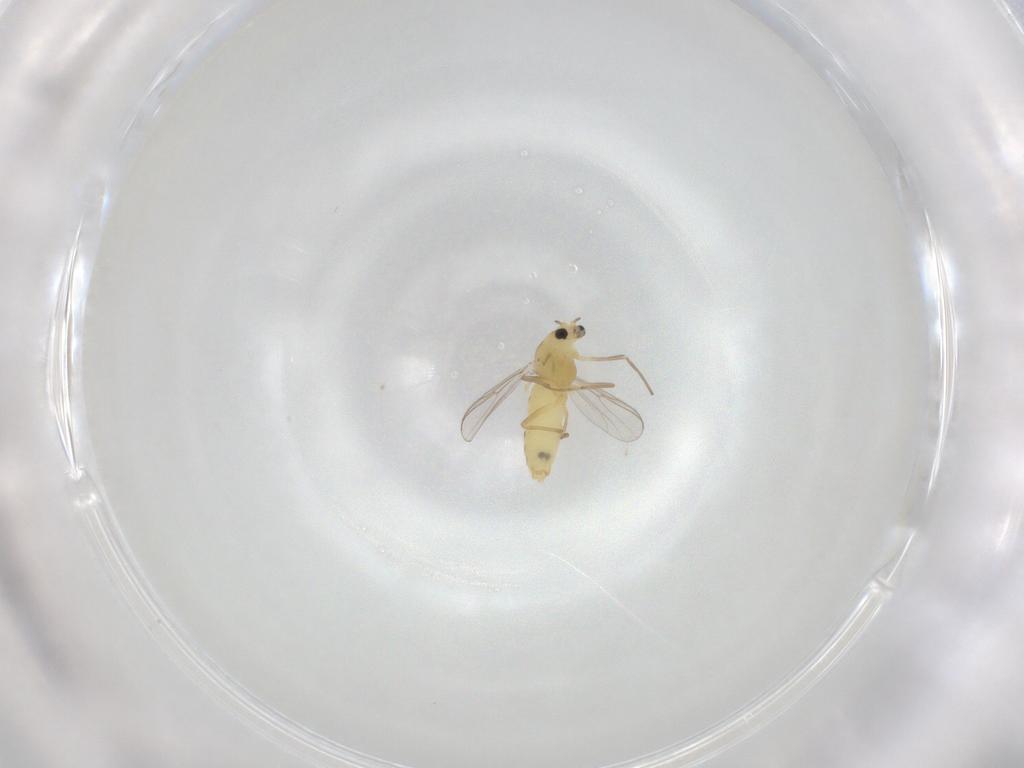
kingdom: Animalia
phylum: Arthropoda
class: Insecta
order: Diptera
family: Chironomidae
